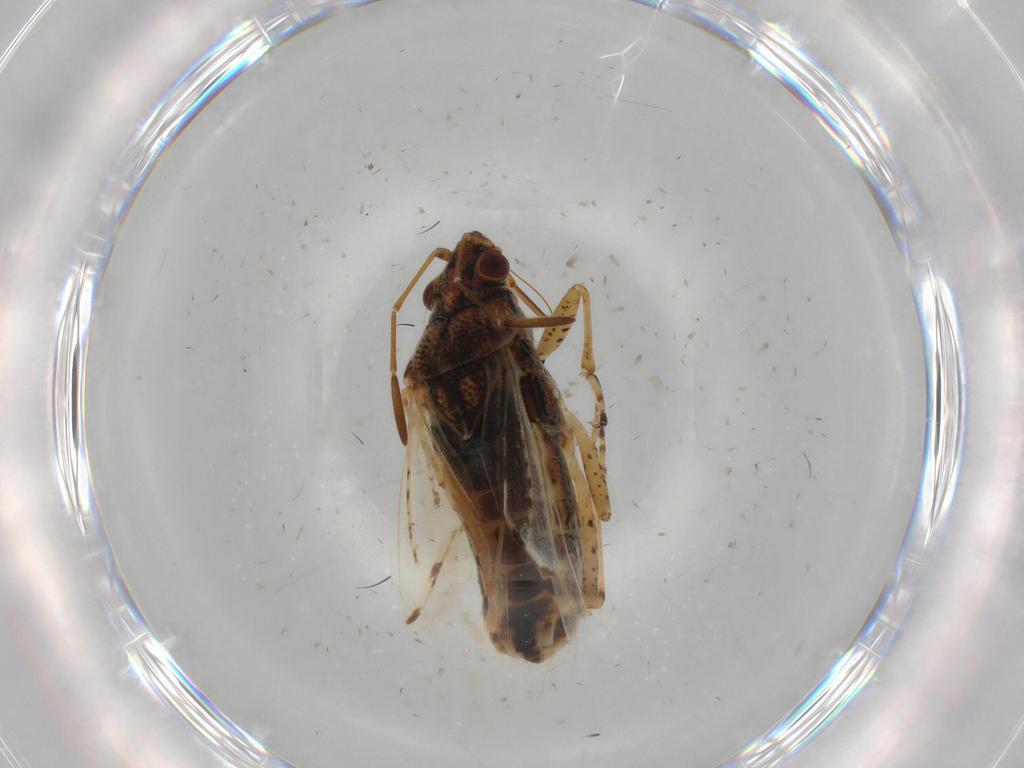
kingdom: Animalia
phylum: Arthropoda
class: Insecta
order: Hemiptera
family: Lygaeidae
